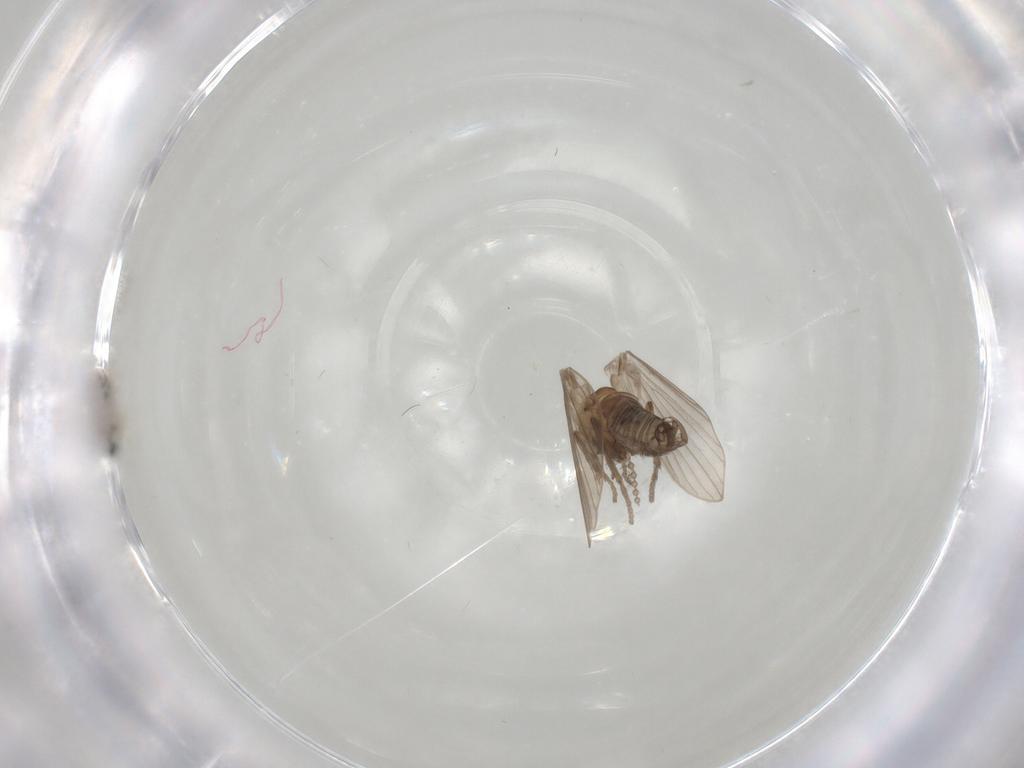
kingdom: Animalia
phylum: Arthropoda
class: Insecta
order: Diptera
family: Psychodidae
